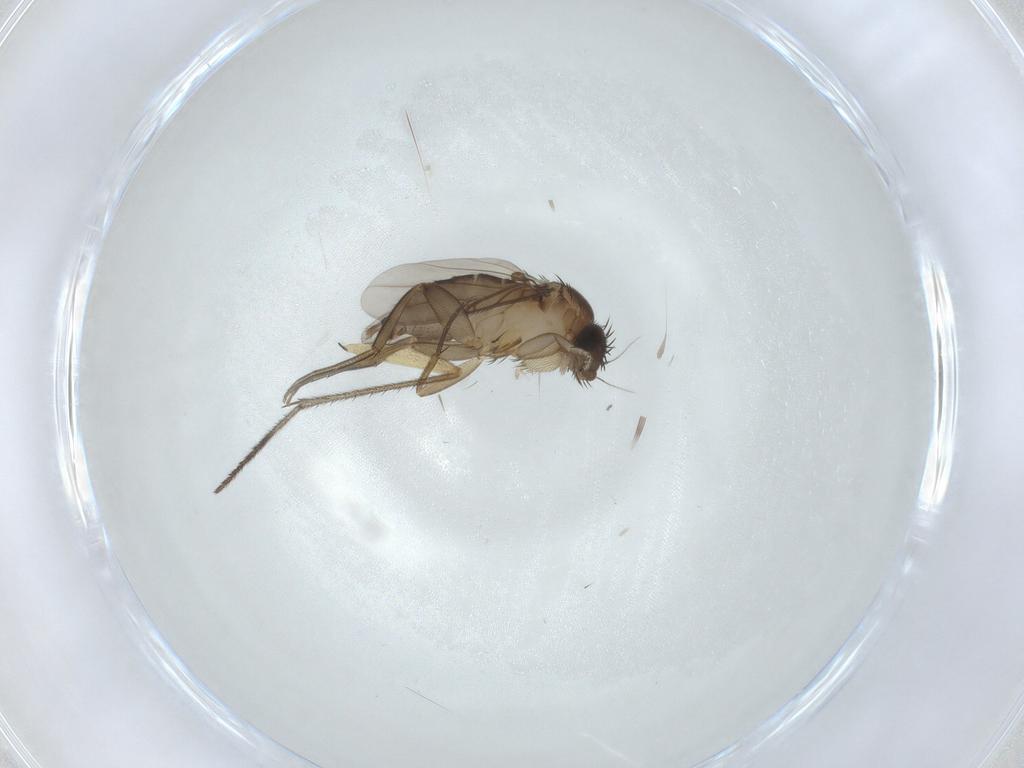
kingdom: Animalia
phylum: Arthropoda
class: Insecta
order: Diptera
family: Phoridae
